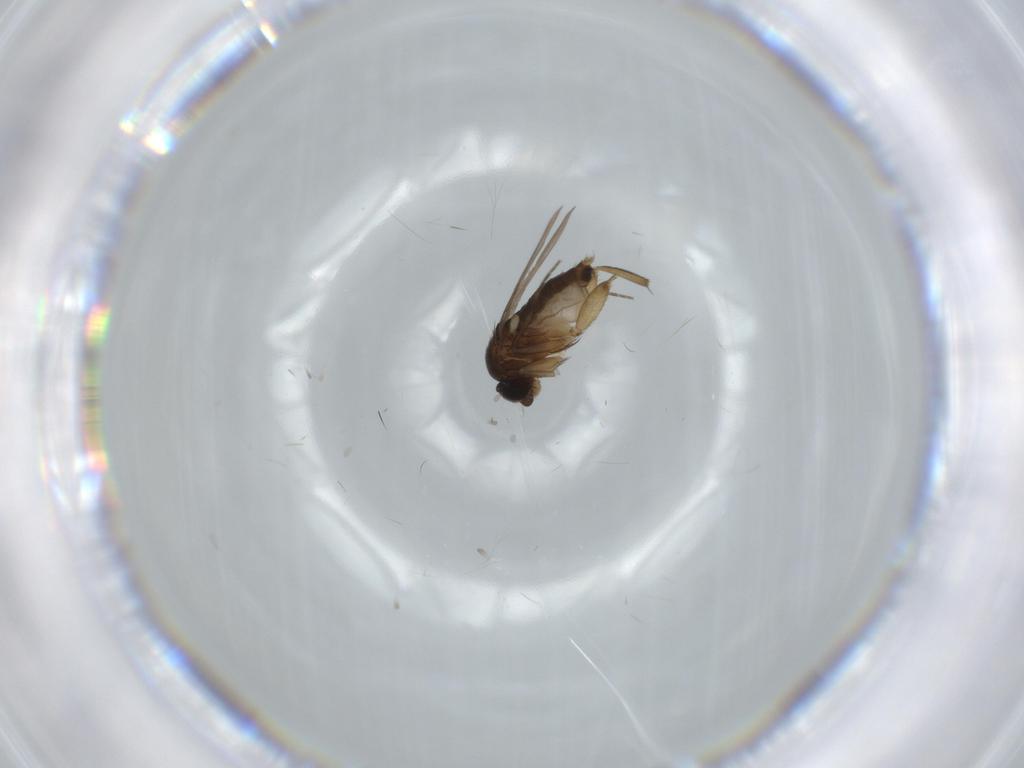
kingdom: Animalia
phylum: Arthropoda
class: Insecta
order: Diptera
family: Phoridae
